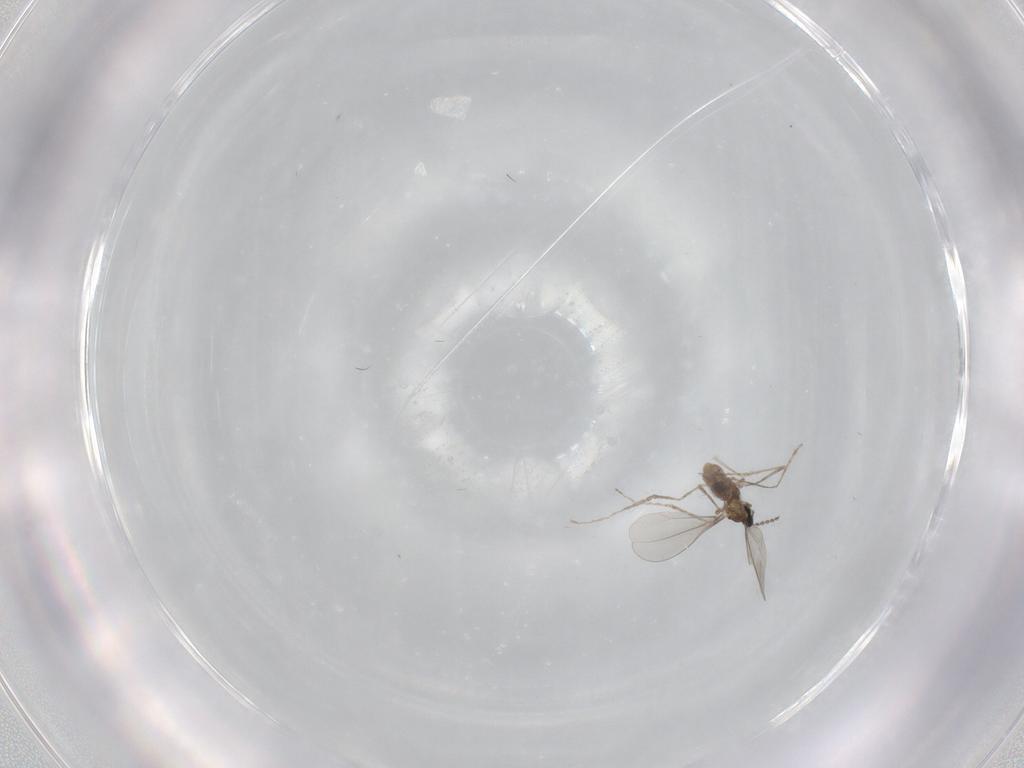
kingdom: Animalia
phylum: Arthropoda
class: Insecta
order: Diptera
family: Cecidomyiidae
